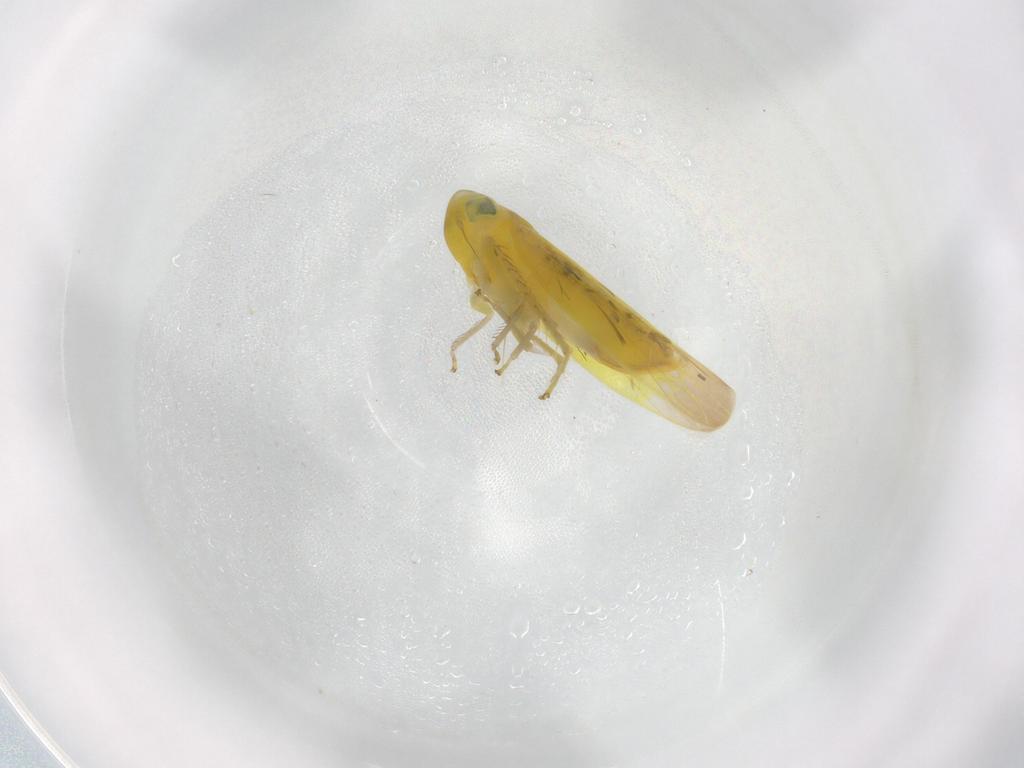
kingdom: Animalia
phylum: Arthropoda
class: Insecta
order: Hemiptera
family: Cicadellidae
